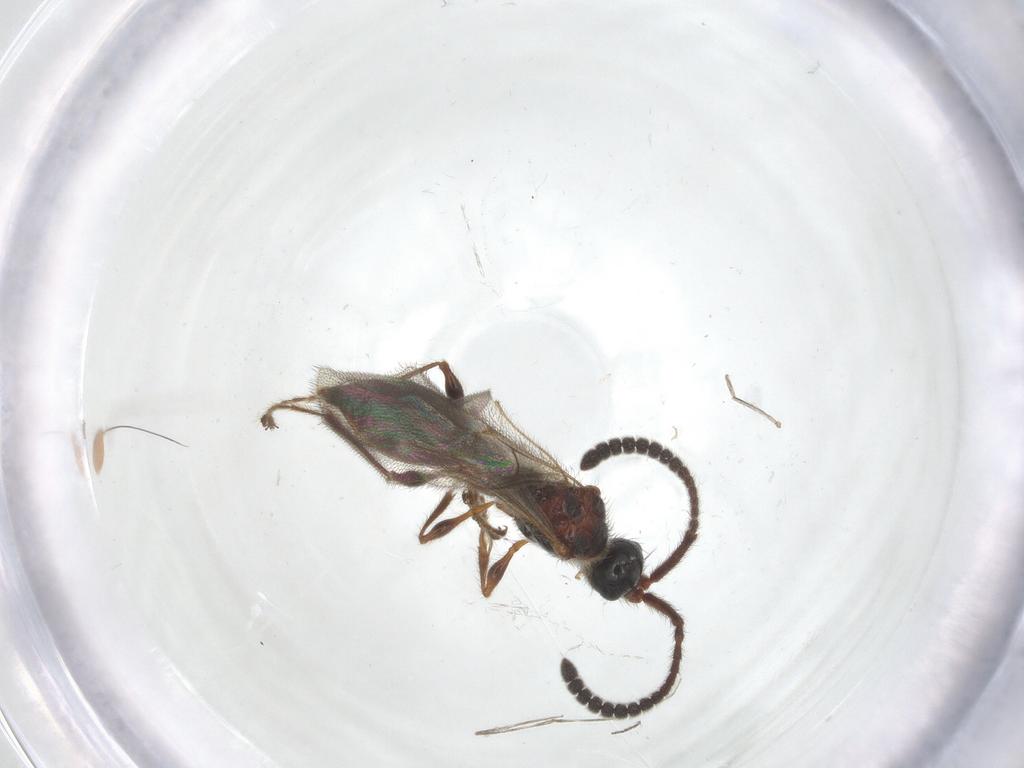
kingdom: Animalia
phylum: Arthropoda
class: Insecta
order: Hymenoptera
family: Diapriidae
